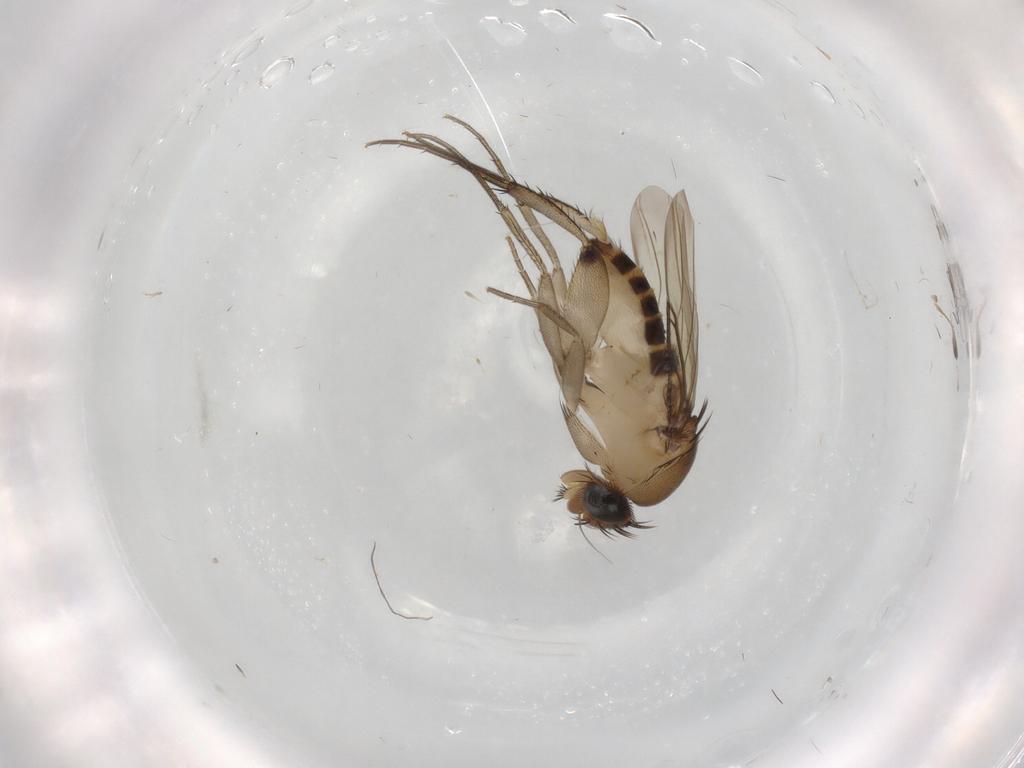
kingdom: Animalia
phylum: Arthropoda
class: Insecta
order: Diptera
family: Phoridae
